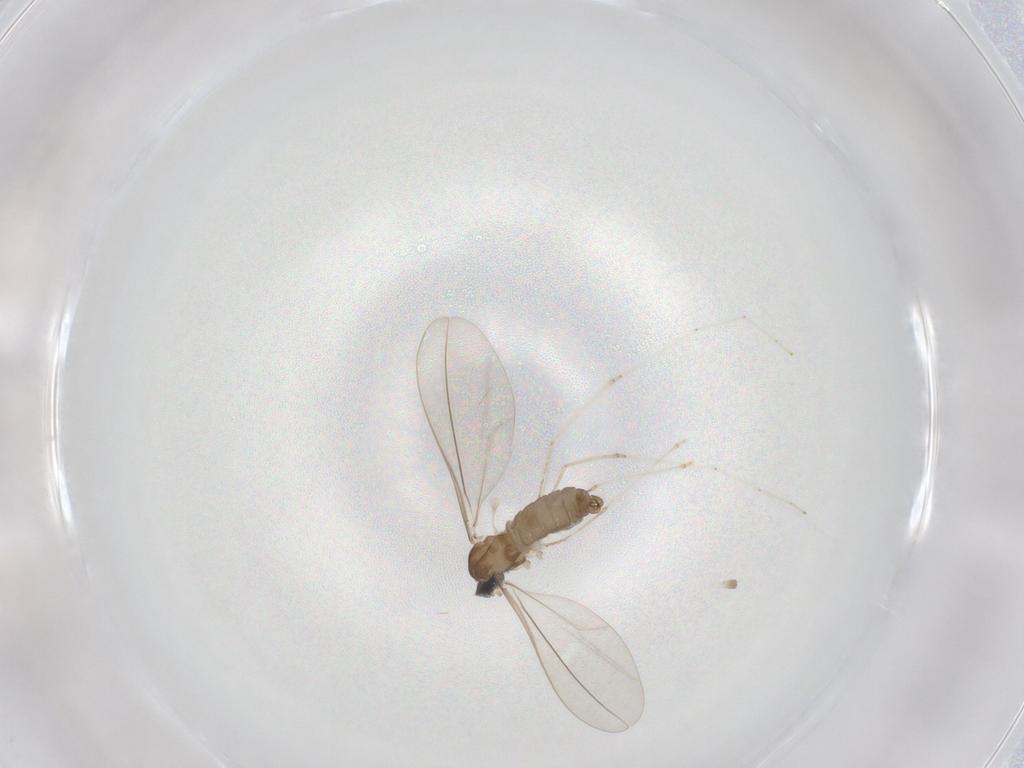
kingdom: Animalia
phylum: Arthropoda
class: Insecta
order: Diptera
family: Cecidomyiidae
